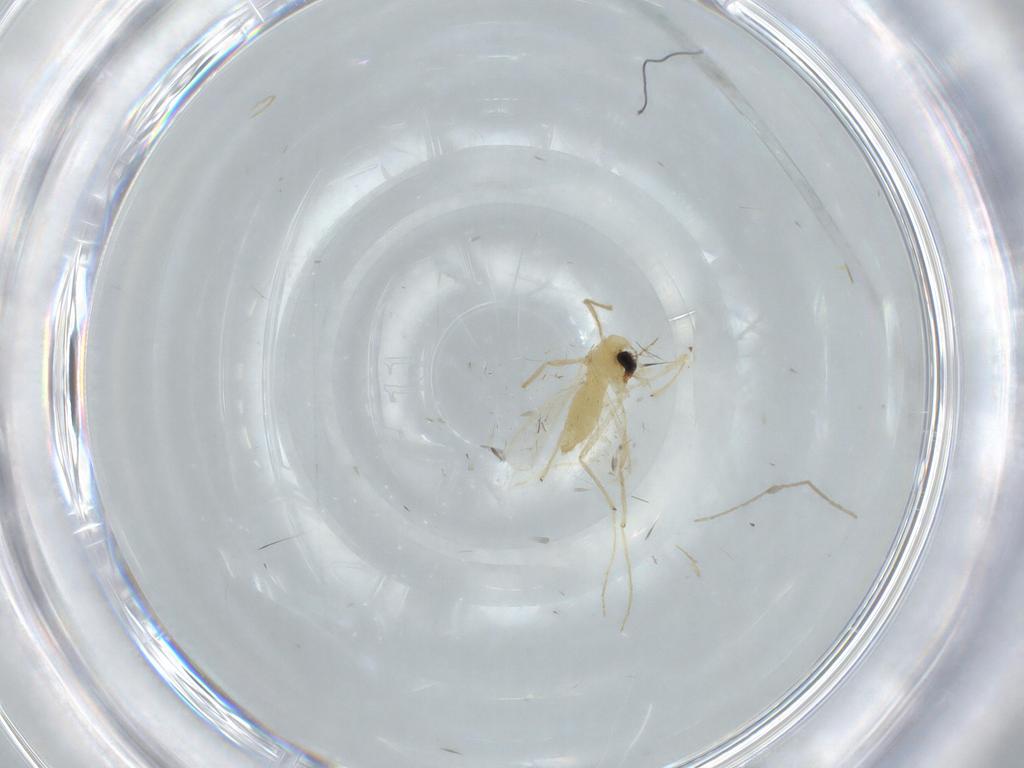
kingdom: Animalia
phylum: Arthropoda
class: Insecta
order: Diptera
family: Chironomidae
